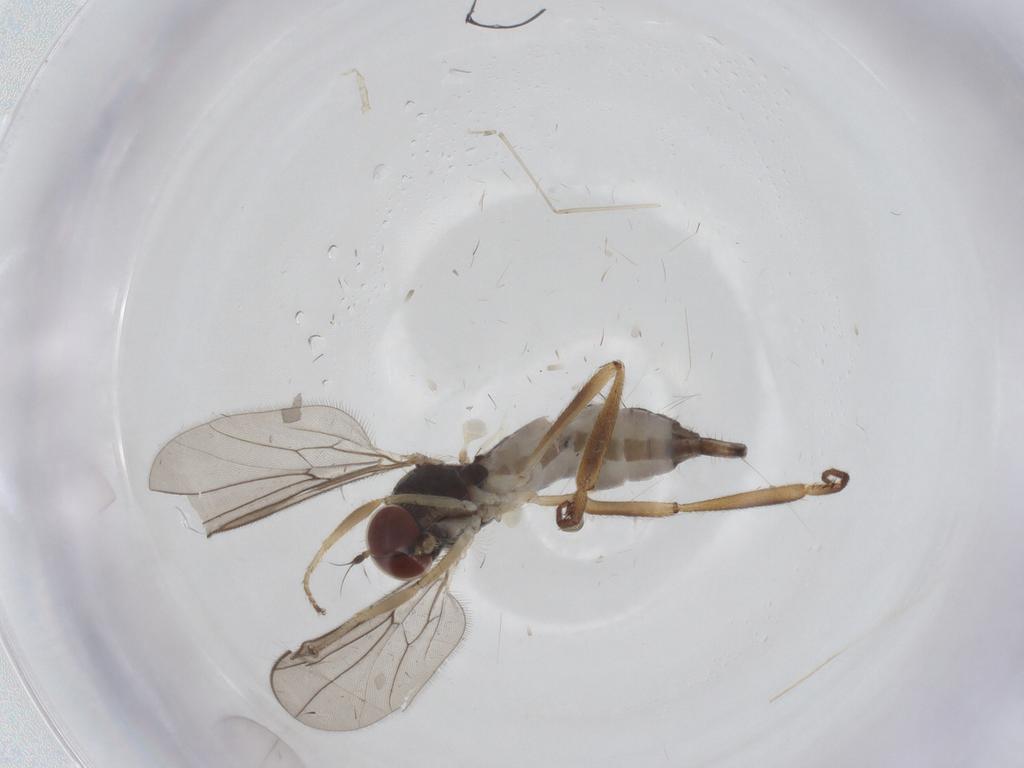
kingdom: Animalia
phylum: Arthropoda
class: Insecta
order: Diptera
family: Hybotidae
